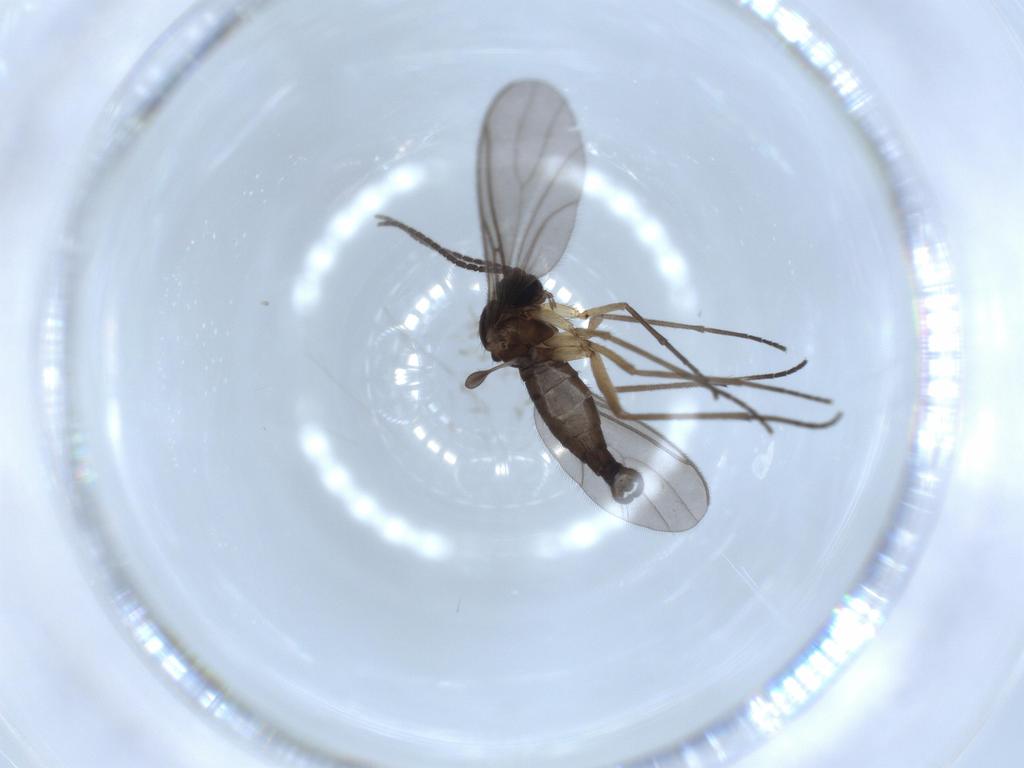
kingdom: Animalia
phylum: Arthropoda
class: Insecta
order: Diptera
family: Sciaridae
